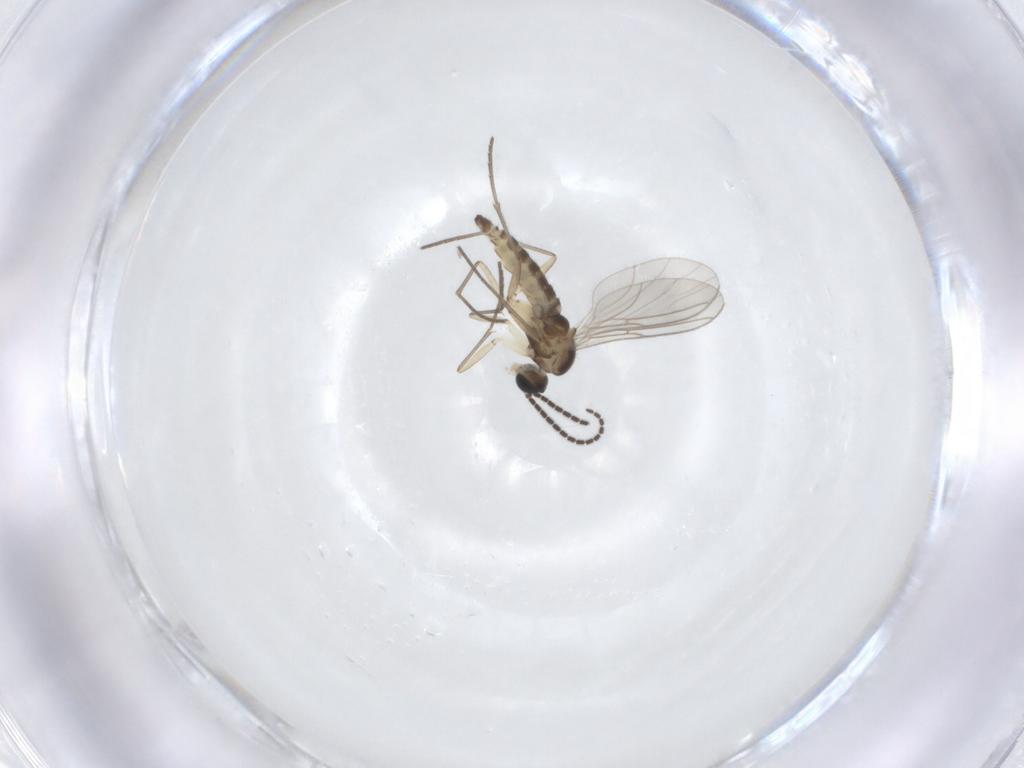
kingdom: Animalia
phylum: Arthropoda
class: Insecta
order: Diptera
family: Sciaridae
